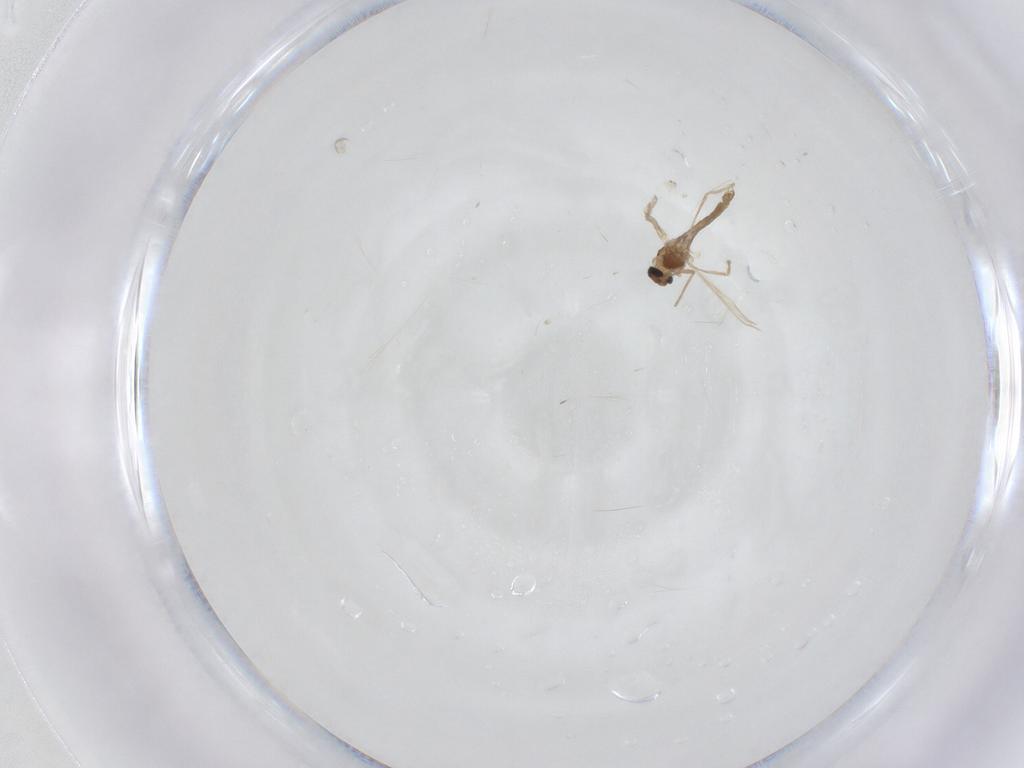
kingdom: Animalia
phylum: Arthropoda
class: Insecta
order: Diptera
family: Chironomidae
